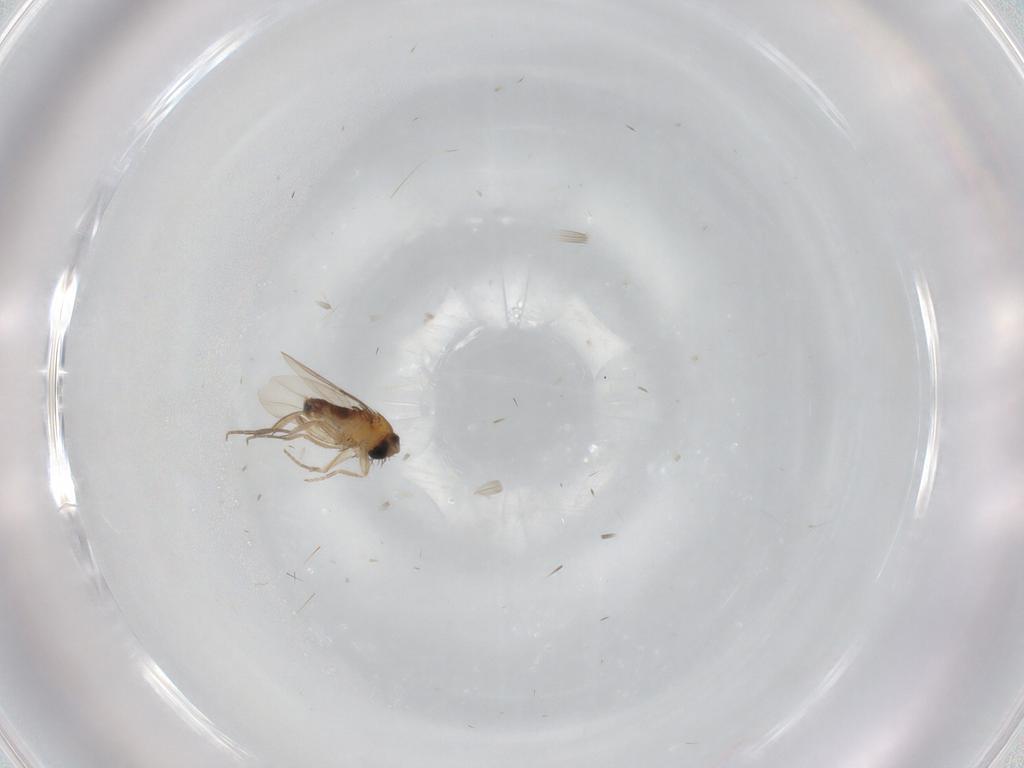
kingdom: Animalia
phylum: Arthropoda
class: Insecta
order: Diptera
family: Phoridae
